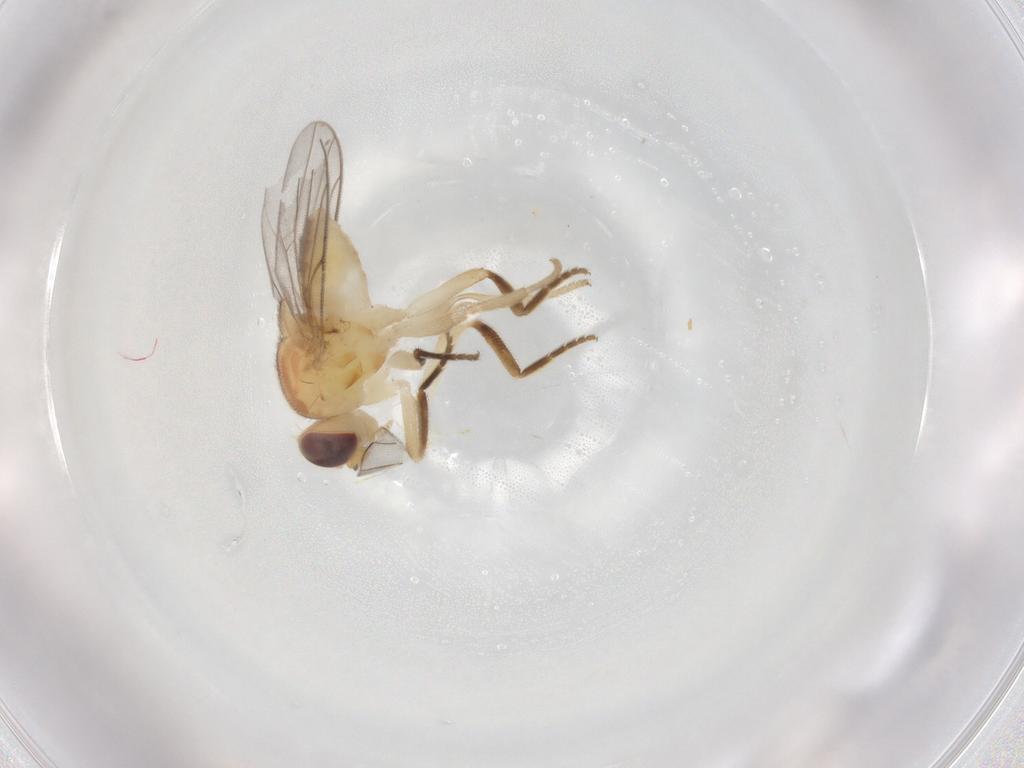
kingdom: Animalia
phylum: Arthropoda
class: Insecta
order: Diptera
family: Chloropidae
